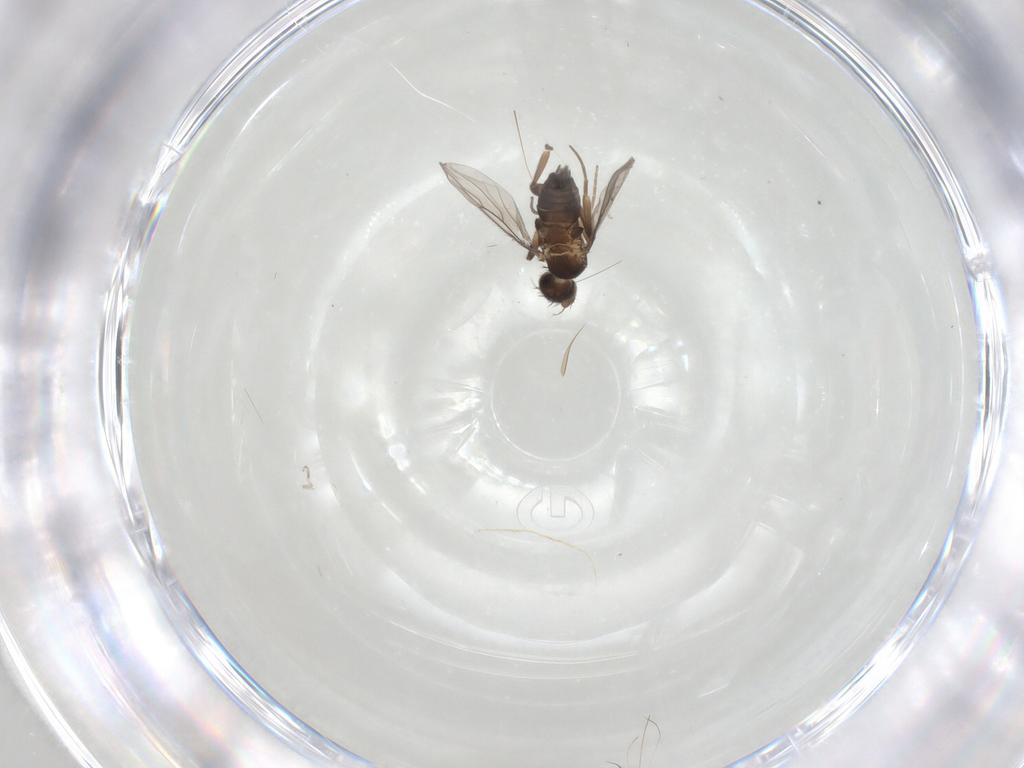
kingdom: Animalia
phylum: Arthropoda
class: Insecta
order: Diptera
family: Phoridae
